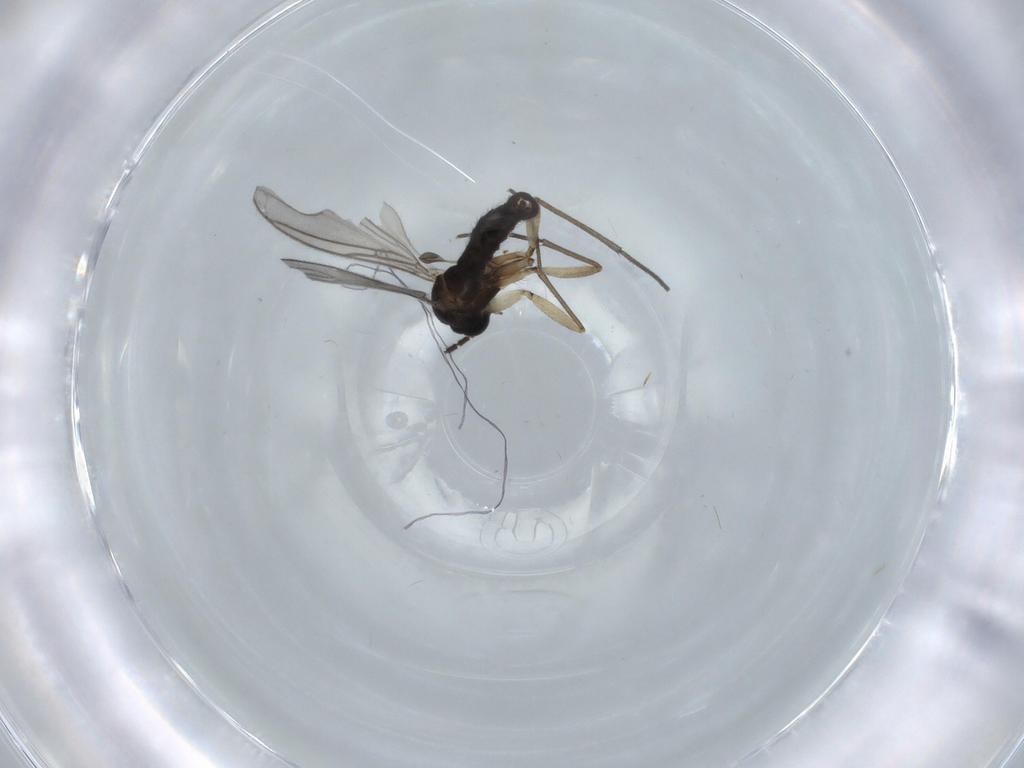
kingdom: Animalia
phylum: Arthropoda
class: Insecta
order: Diptera
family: Sciaridae
